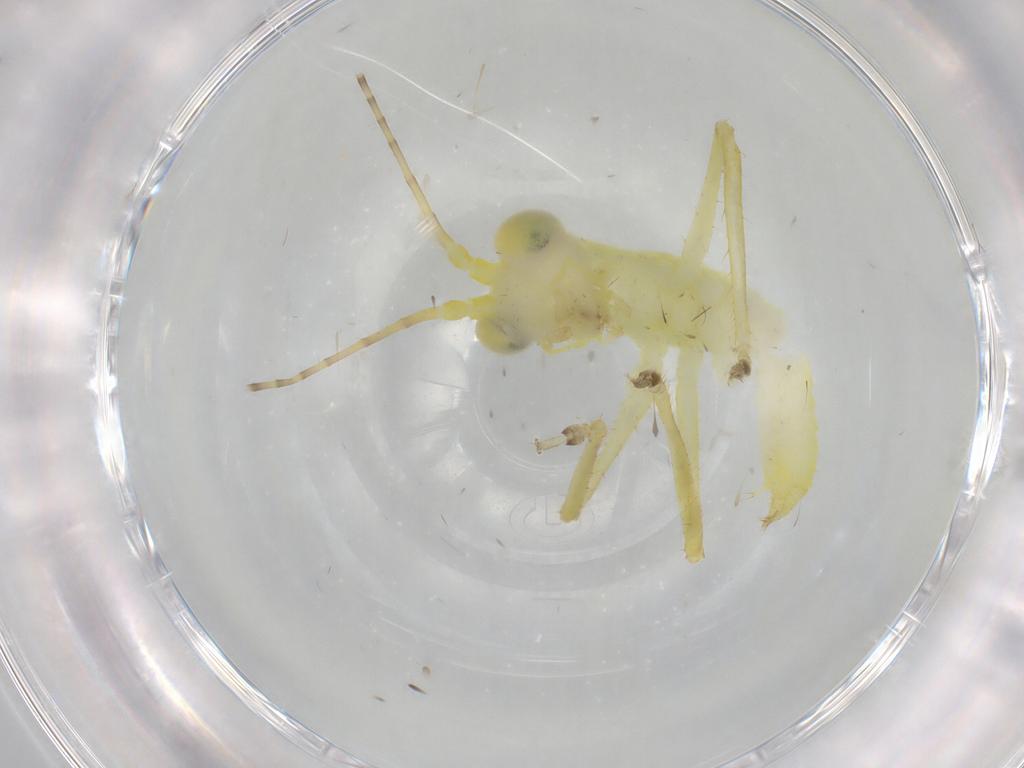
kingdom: Animalia
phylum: Arthropoda
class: Insecta
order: Orthoptera
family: Tettigoniidae
